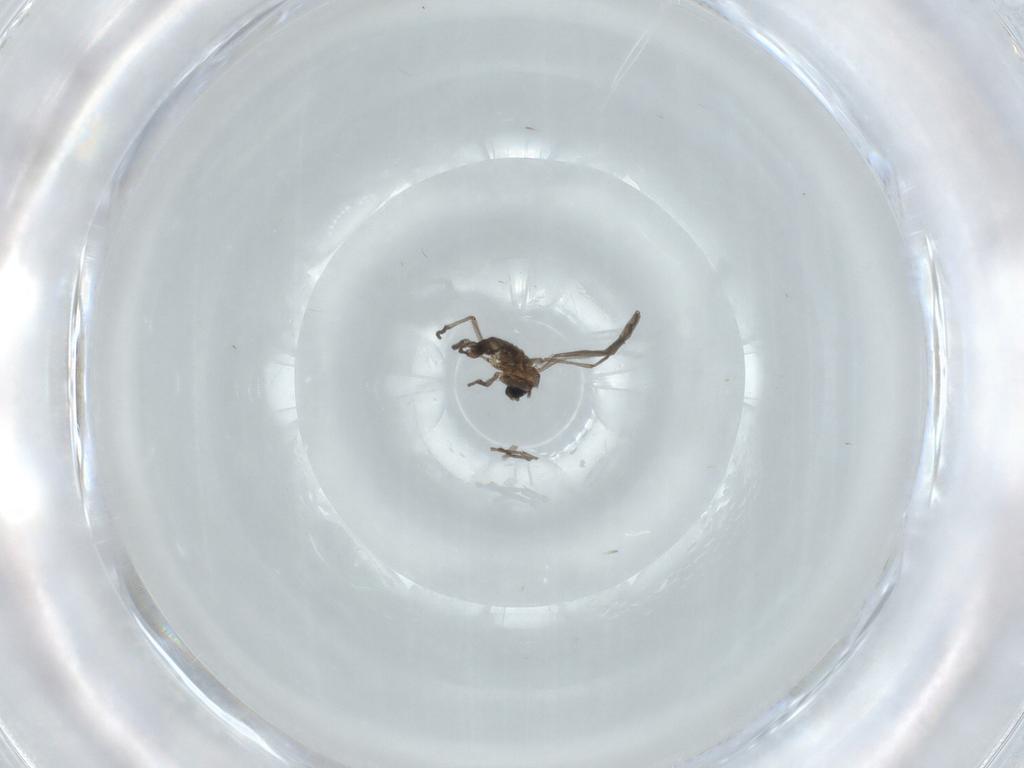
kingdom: Animalia
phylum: Arthropoda
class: Insecta
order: Diptera
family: Sciaridae
